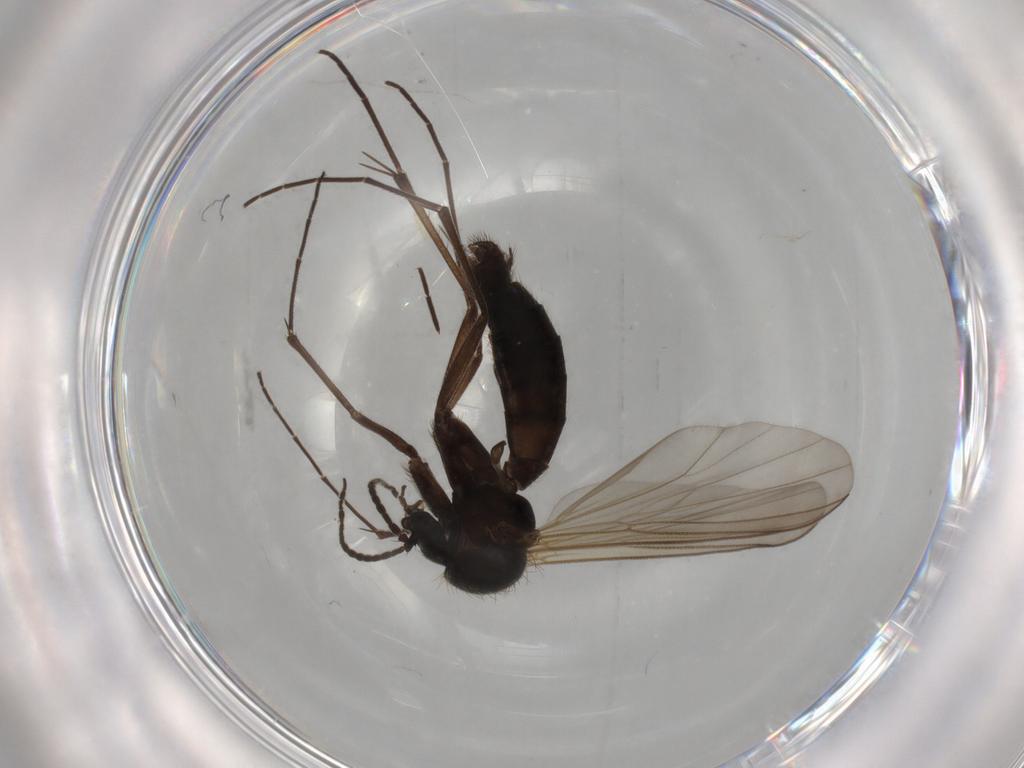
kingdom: Animalia
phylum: Arthropoda
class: Insecta
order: Diptera
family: Mycetophilidae
